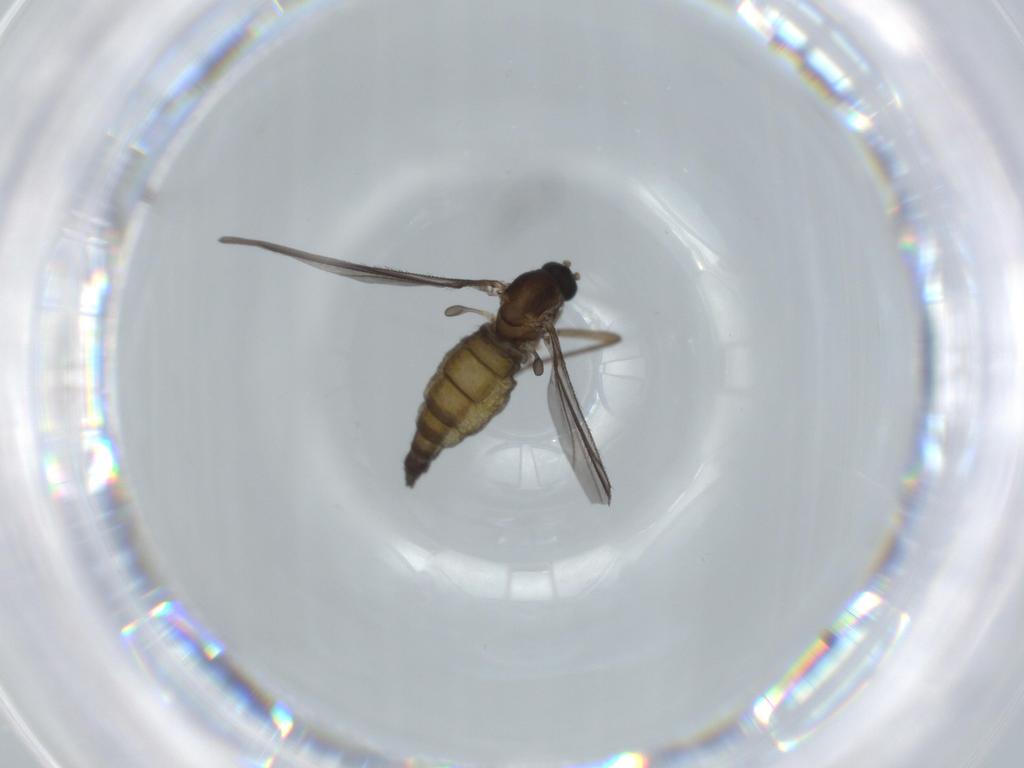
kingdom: Animalia
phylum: Arthropoda
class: Insecta
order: Diptera
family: Sciaridae
